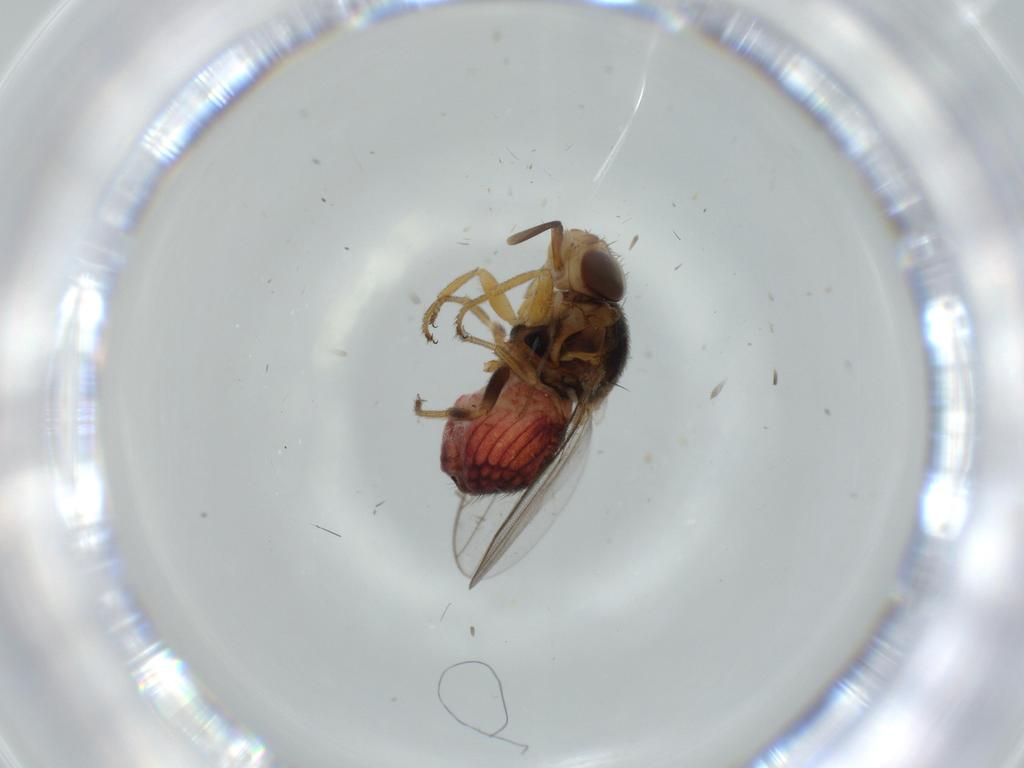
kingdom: Animalia
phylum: Arthropoda
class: Insecta
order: Diptera
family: Chloropidae
